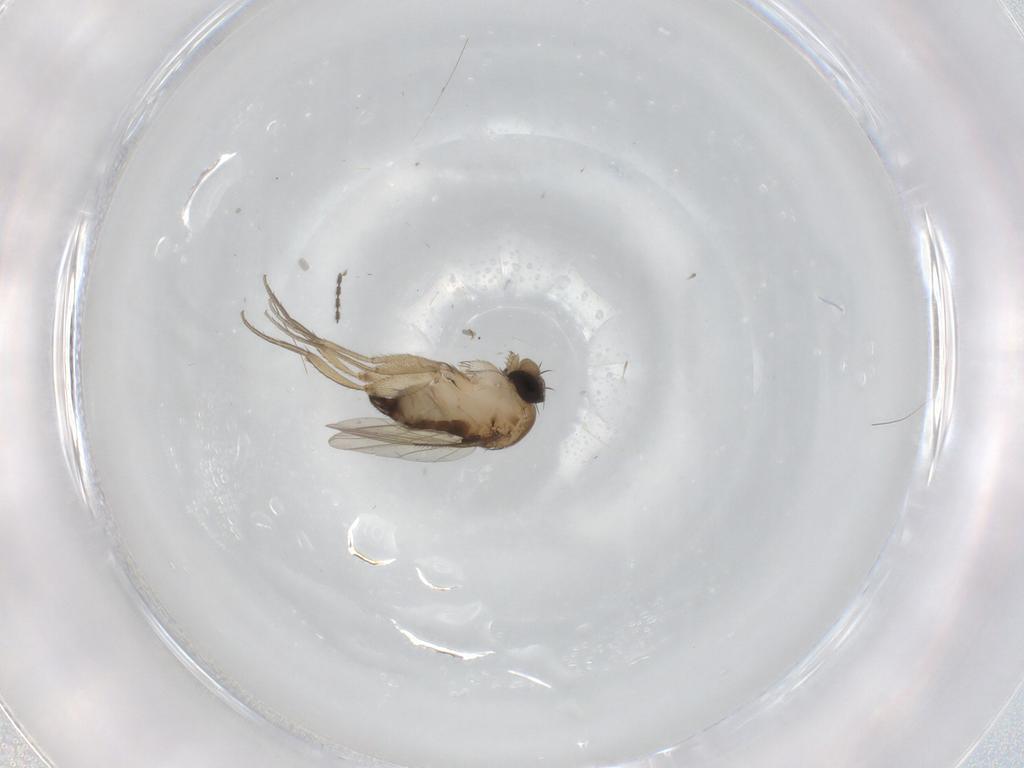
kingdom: Animalia
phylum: Arthropoda
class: Insecta
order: Diptera
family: Phoridae
